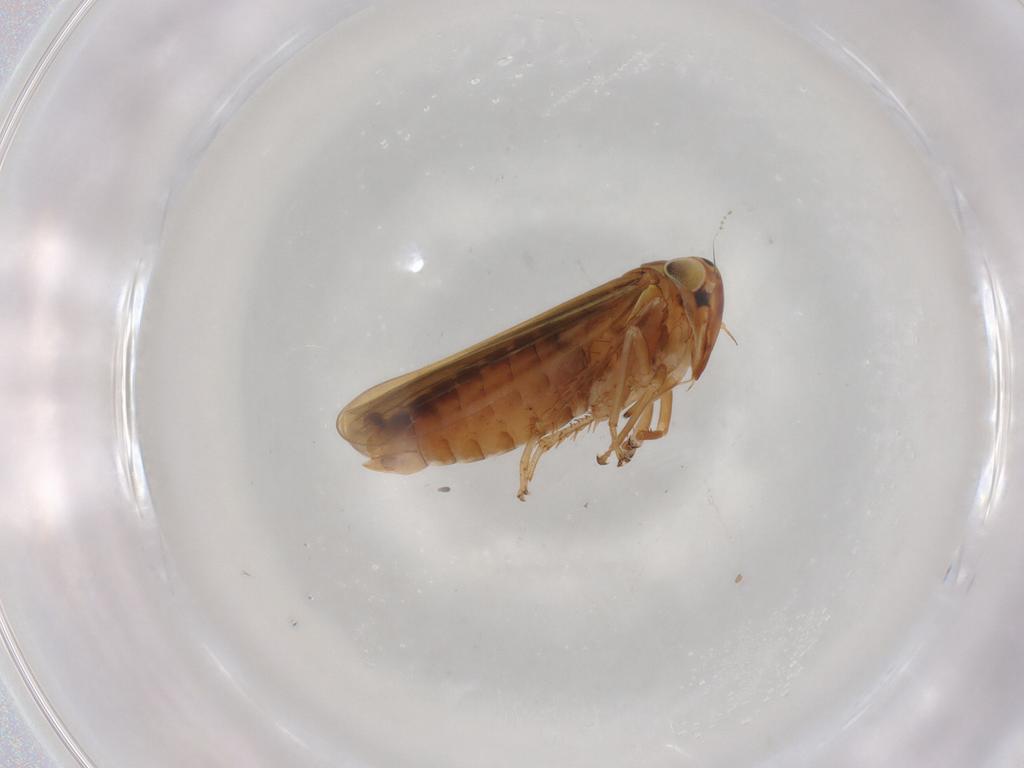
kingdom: Animalia
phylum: Arthropoda
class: Insecta
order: Hemiptera
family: Cicadellidae
